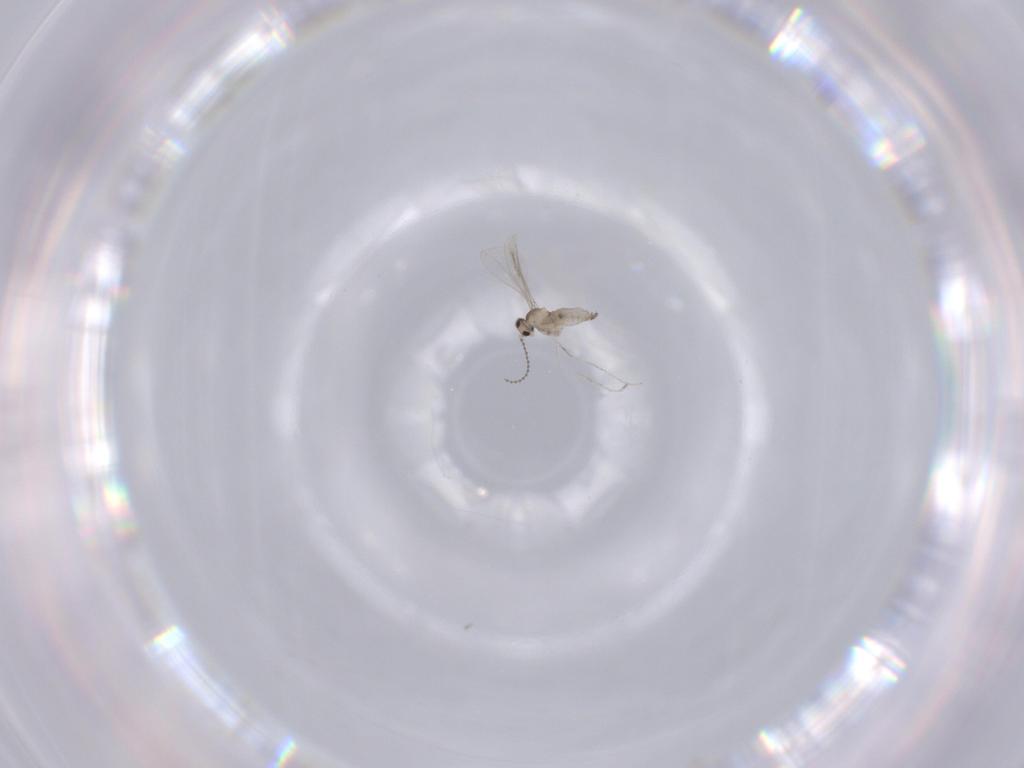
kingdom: Animalia
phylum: Arthropoda
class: Insecta
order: Diptera
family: Cecidomyiidae
